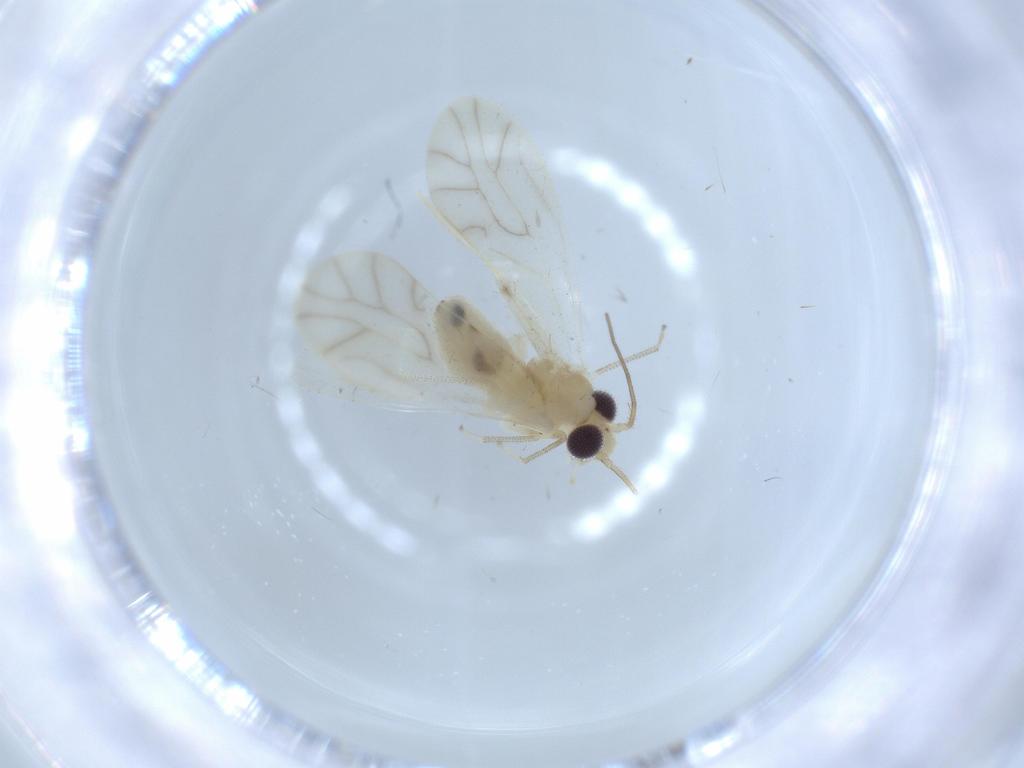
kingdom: Animalia
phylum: Arthropoda
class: Insecta
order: Psocodea
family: Caeciliusidae
